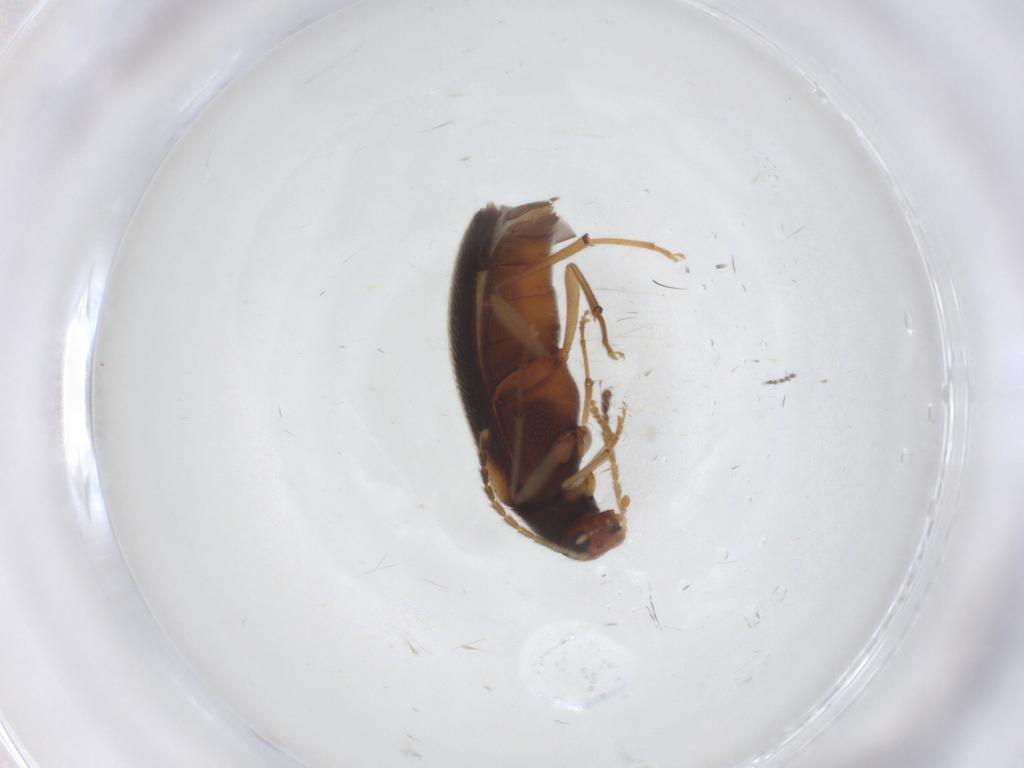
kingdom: Animalia
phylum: Arthropoda
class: Insecta
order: Coleoptera
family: Melandryidae
